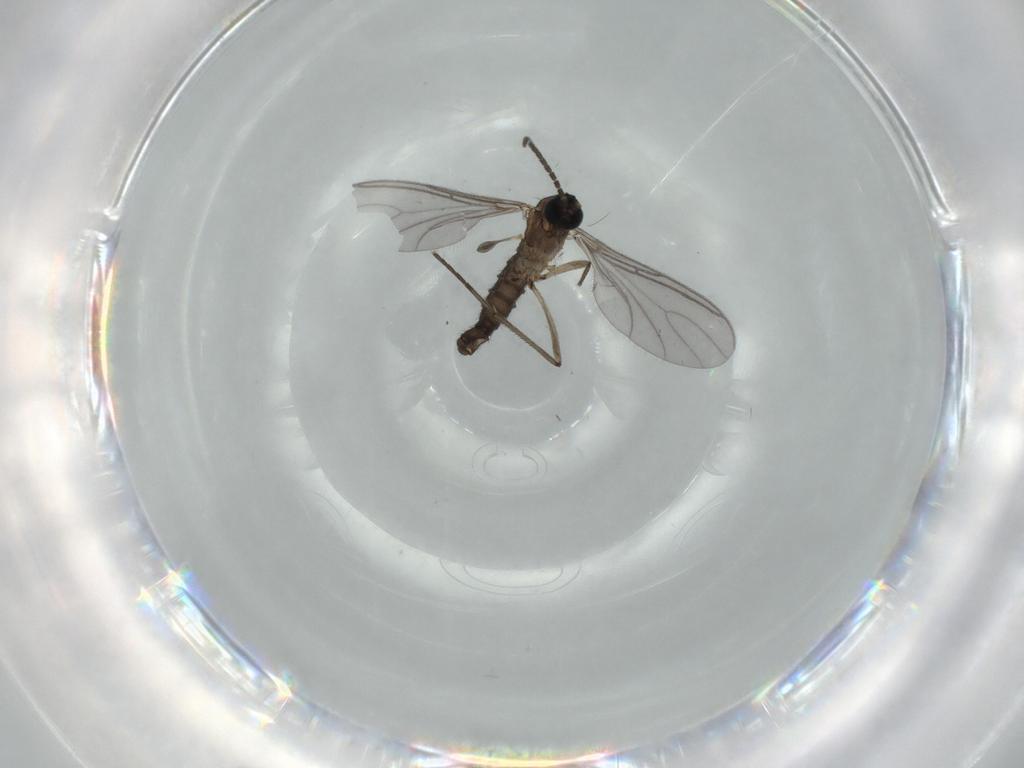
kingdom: Animalia
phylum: Arthropoda
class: Insecta
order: Diptera
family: Sciaridae
